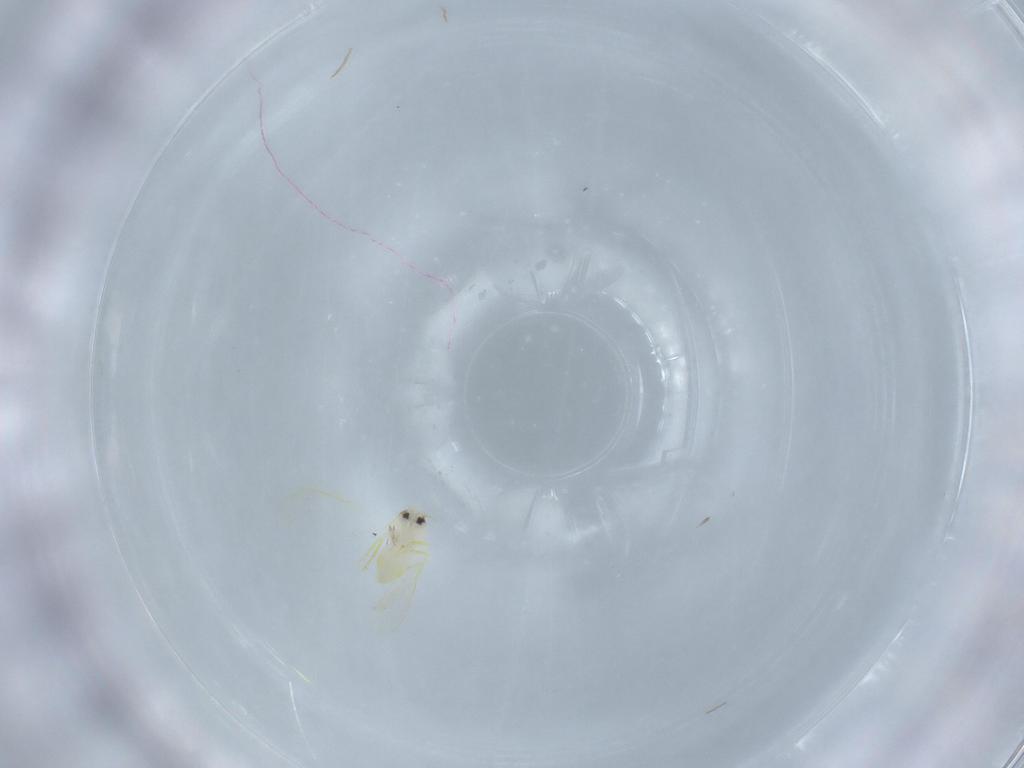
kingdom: Animalia
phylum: Arthropoda
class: Insecta
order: Hemiptera
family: Aleyrodidae
